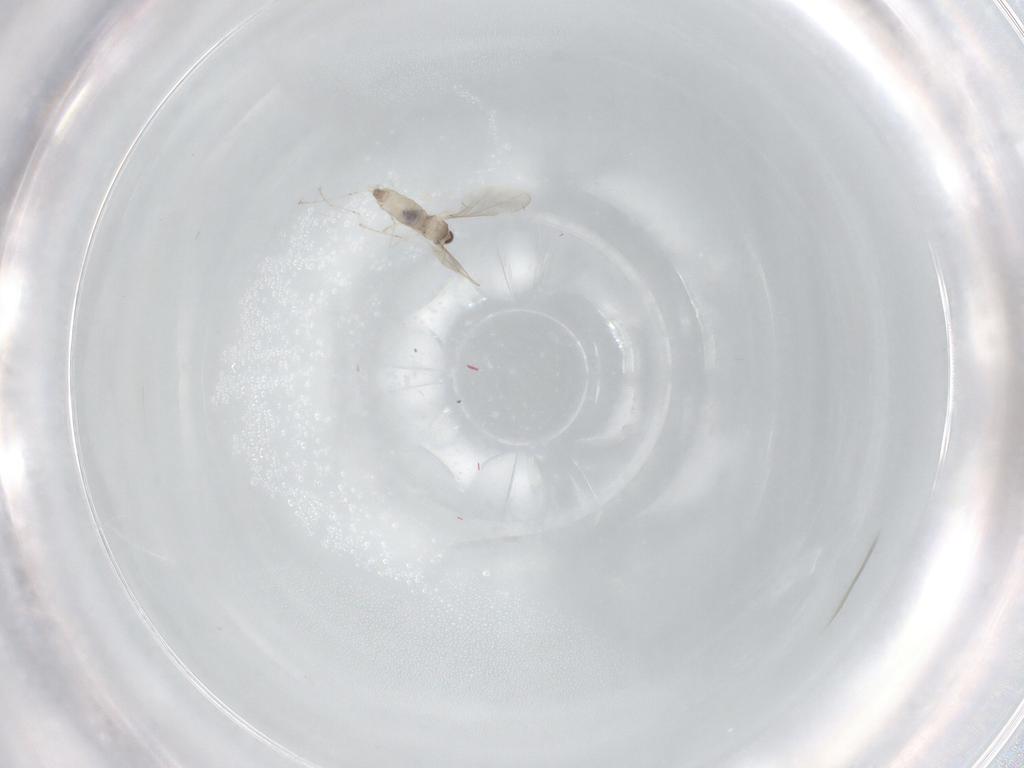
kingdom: Animalia
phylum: Arthropoda
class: Insecta
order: Diptera
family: Cecidomyiidae
